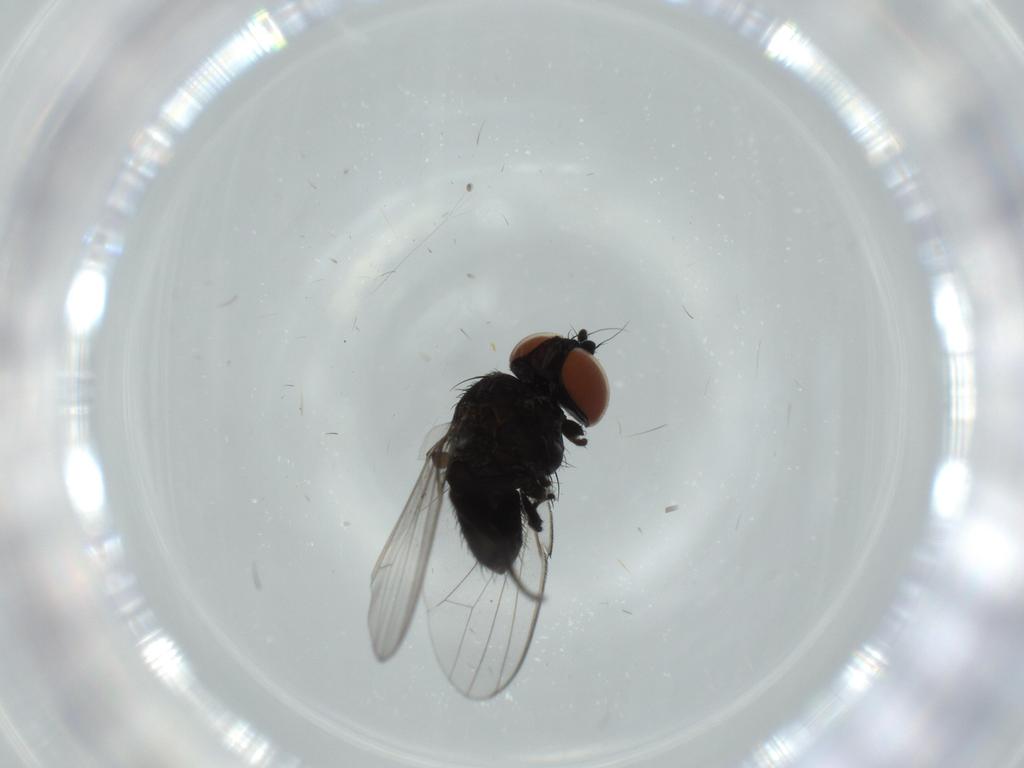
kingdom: Animalia
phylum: Arthropoda
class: Insecta
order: Diptera
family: Milichiidae
